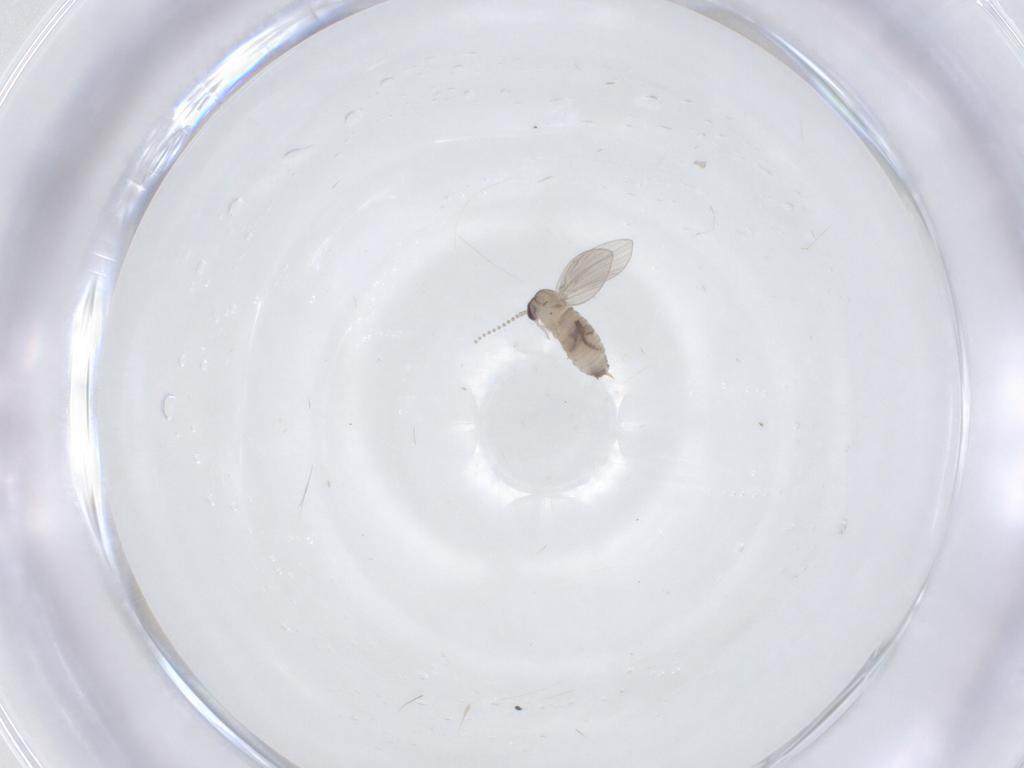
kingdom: Animalia
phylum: Arthropoda
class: Insecta
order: Diptera
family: Psychodidae
